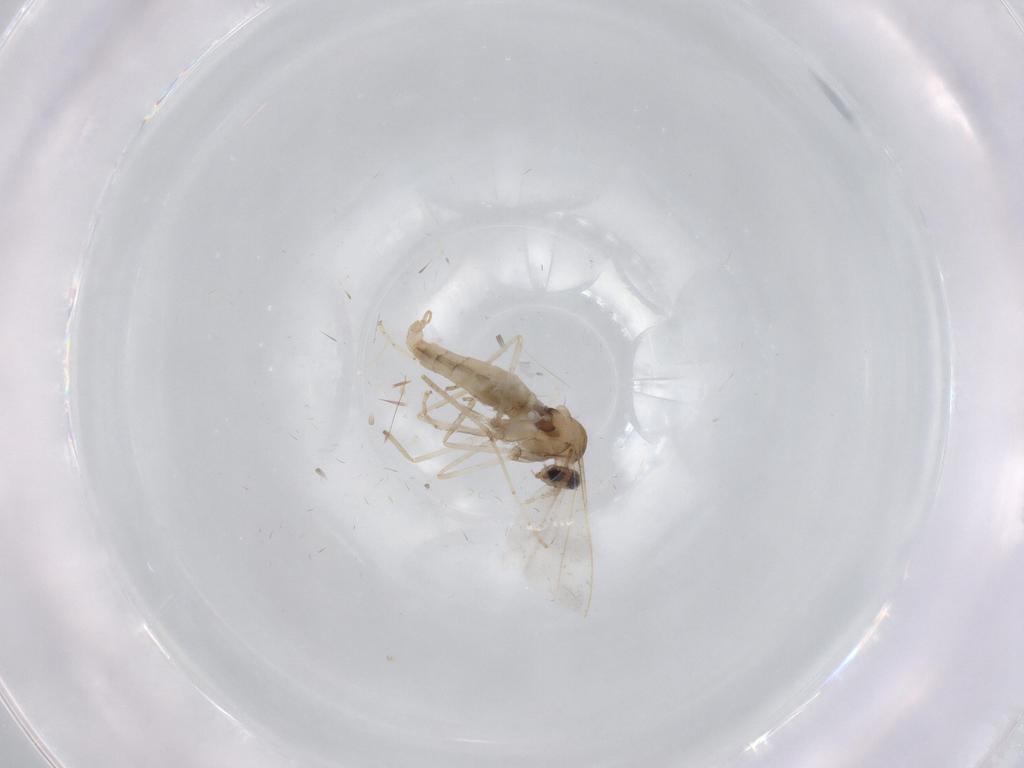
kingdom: Animalia
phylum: Arthropoda
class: Insecta
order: Diptera
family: Cecidomyiidae
